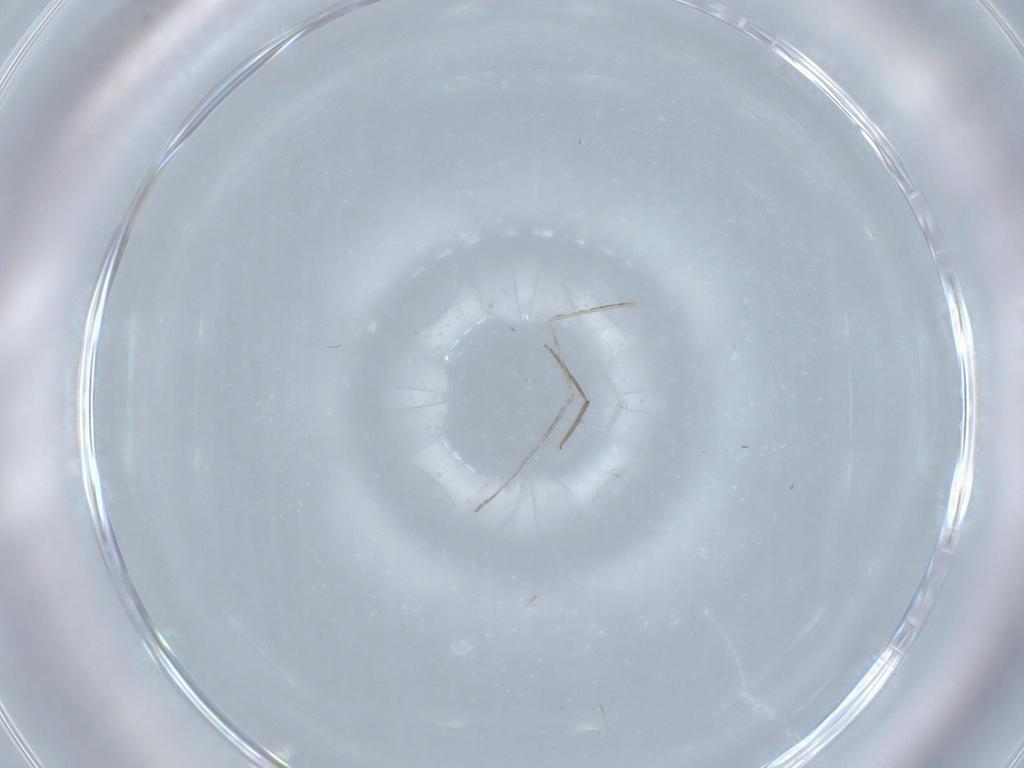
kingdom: Animalia
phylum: Arthropoda
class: Insecta
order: Diptera
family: Chironomidae
